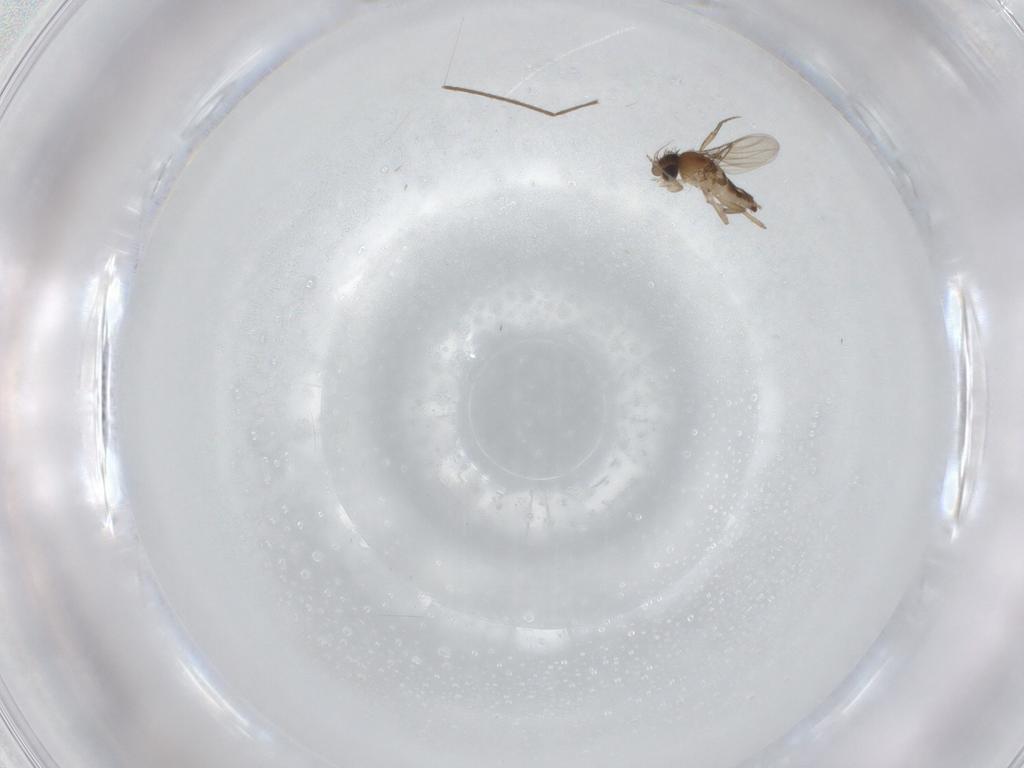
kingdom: Animalia
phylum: Arthropoda
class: Insecta
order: Diptera
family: Phoridae
